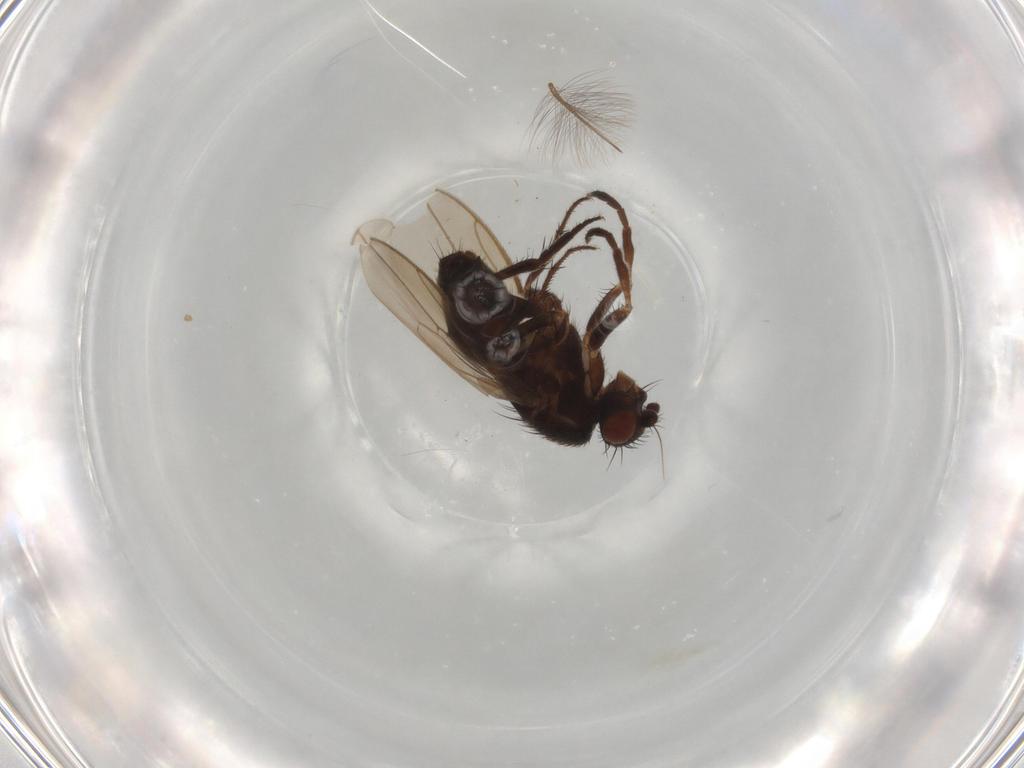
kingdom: Animalia
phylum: Arthropoda
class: Insecta
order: Diptera
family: Sphaeroceridae
